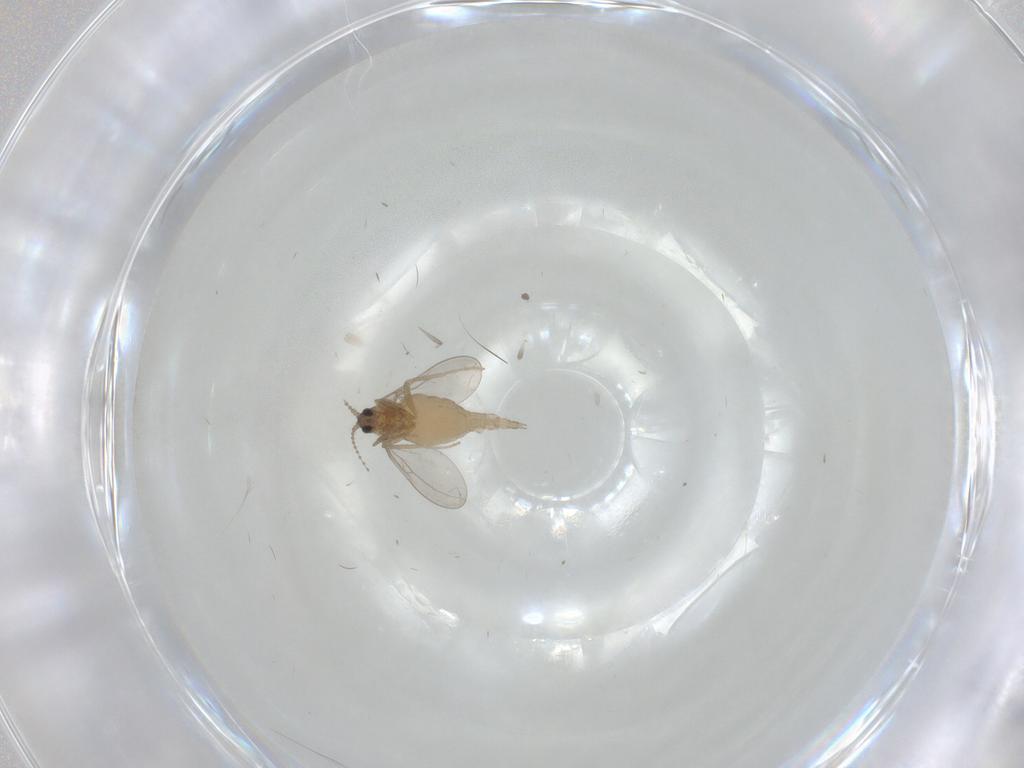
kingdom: Animalia
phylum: Arthropoda
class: Insecta
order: Diptera
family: Cecidomyiidae
